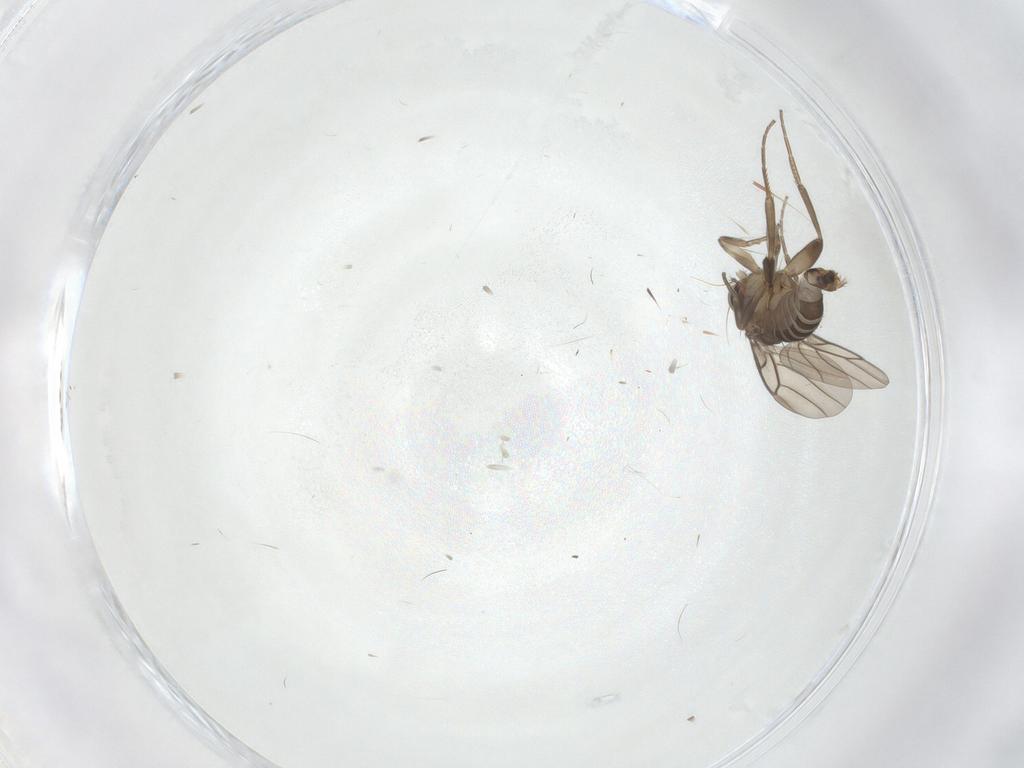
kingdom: Animalia
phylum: Arthropoda
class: Insecta
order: Diptera
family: Phoridae
